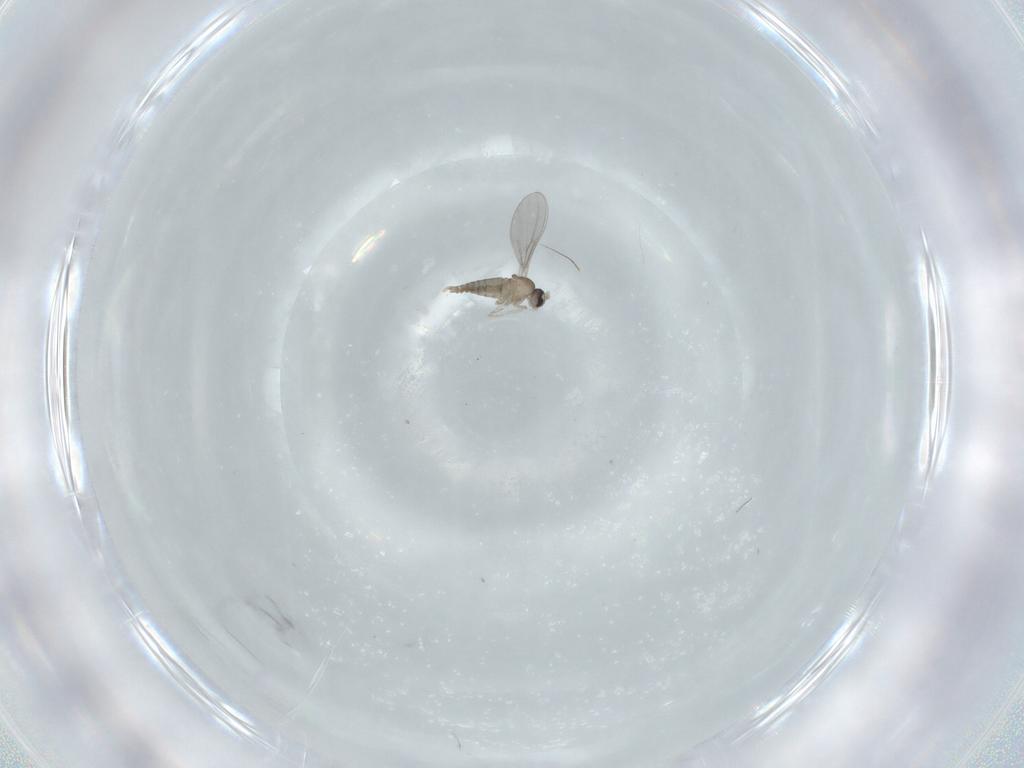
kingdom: Animalia
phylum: Arthropoda
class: Insecta
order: Diptera
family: Cecidomyiidae
